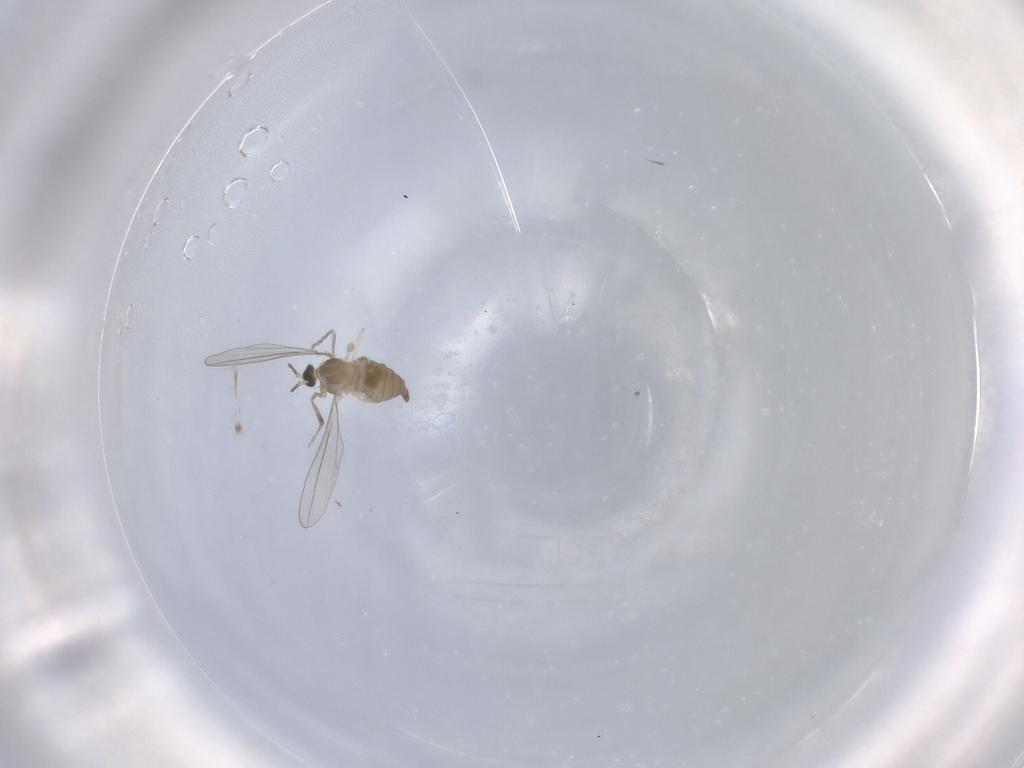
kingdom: Animalia
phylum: Arthropoda
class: Insecta
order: Diptera
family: Cecidomyiidae
